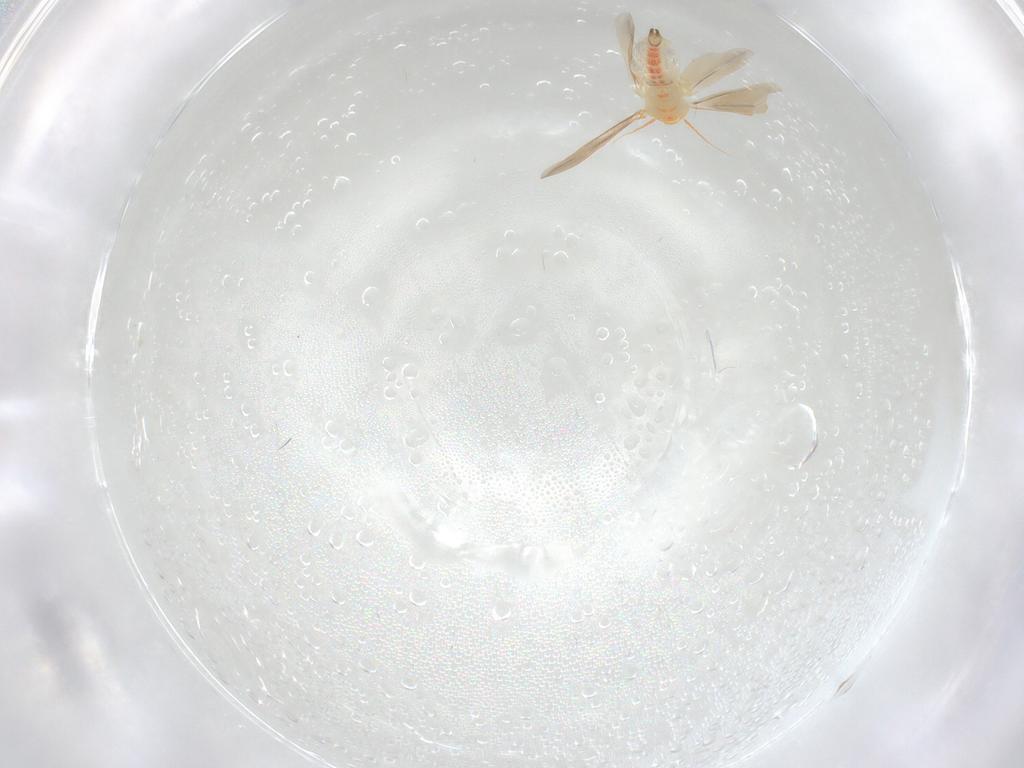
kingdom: Animalia
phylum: Arthropoda
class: Insecta
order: Hemiptera
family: Aleyrodidae
